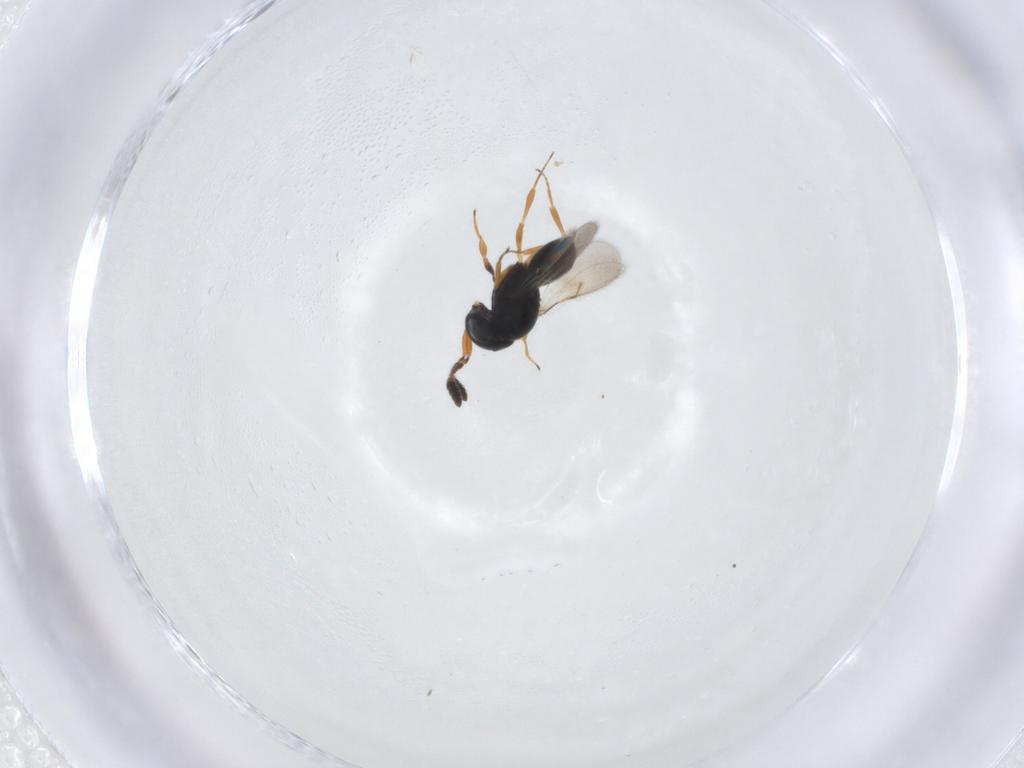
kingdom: Animalia
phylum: Arthropoda
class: Insecta
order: Hymenoptera
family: Scelionidae
